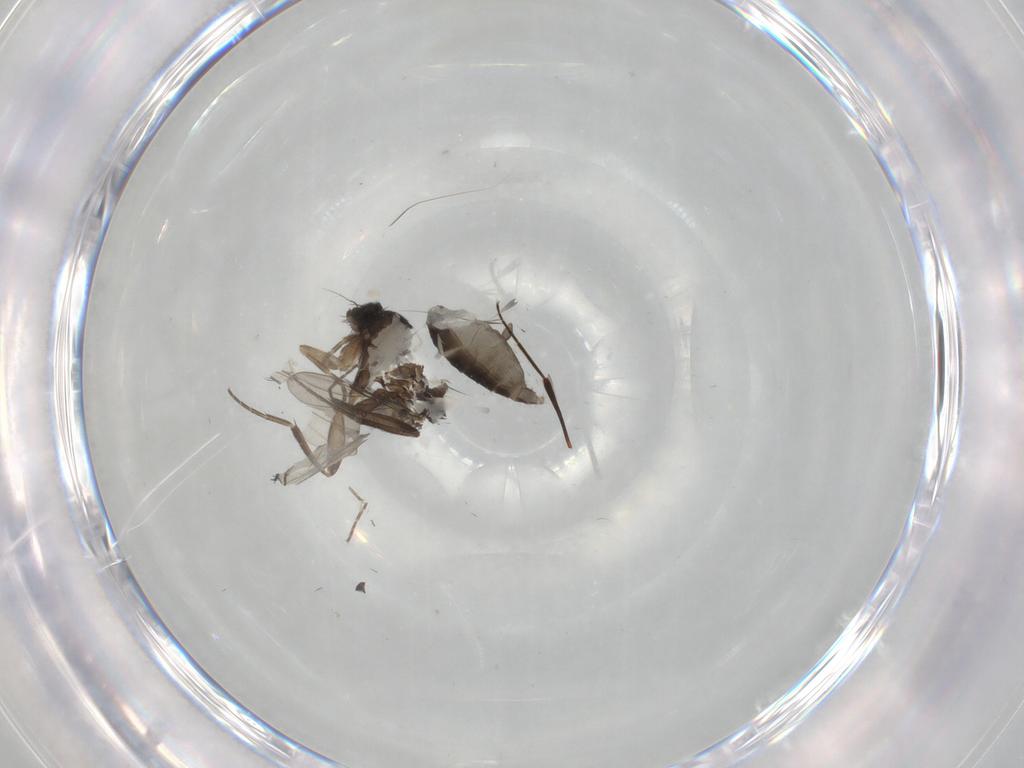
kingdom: Animalia
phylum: Arthropoda
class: Insecta
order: Diptera
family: Phoridae
